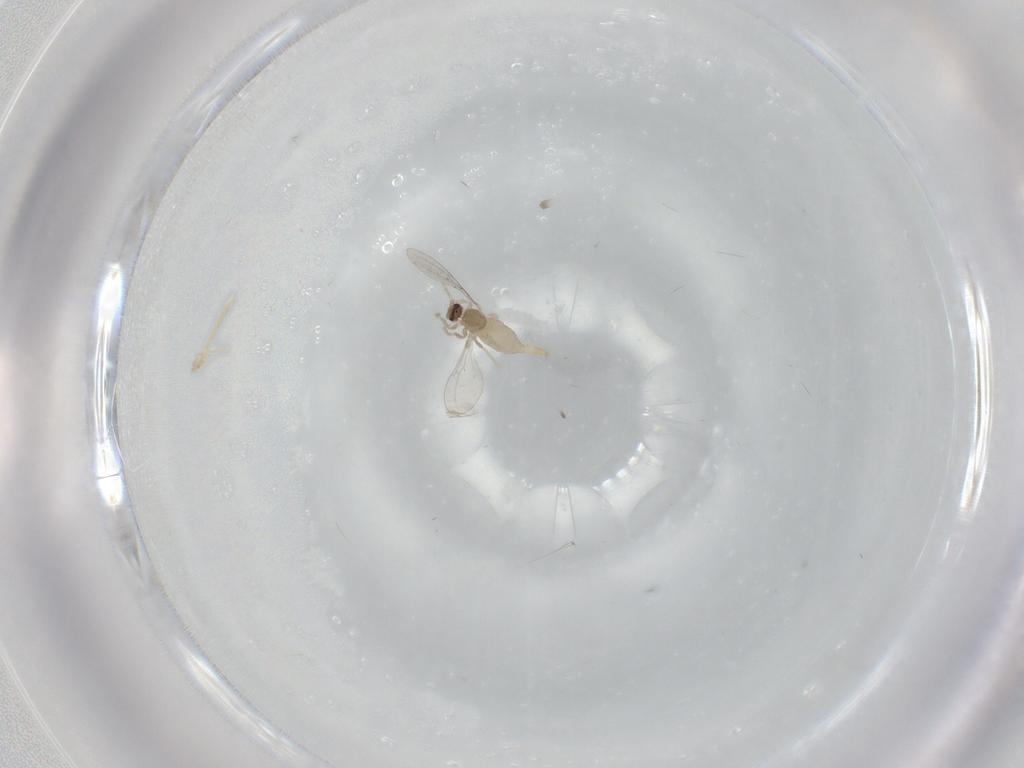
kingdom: Animalia
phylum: Arthropoda
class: Insecta
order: Diptera
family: Cecidomyiidae
